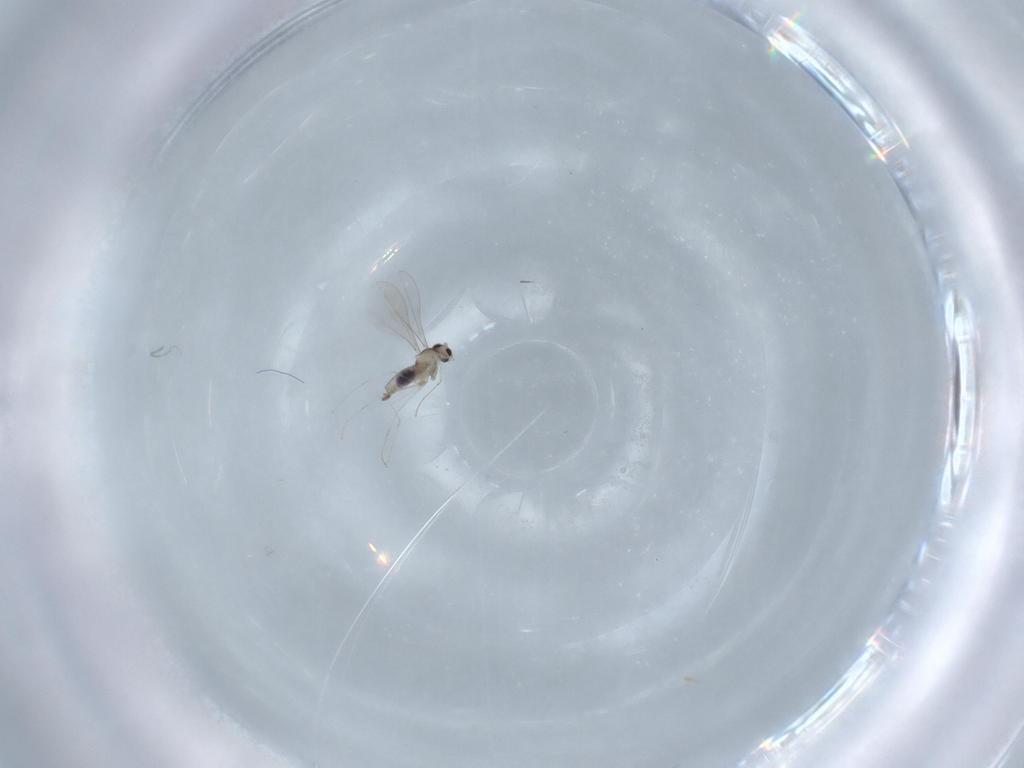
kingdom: Animalia
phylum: Arthropoda
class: Insecta
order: Diptera
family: Cecidomyiidae
